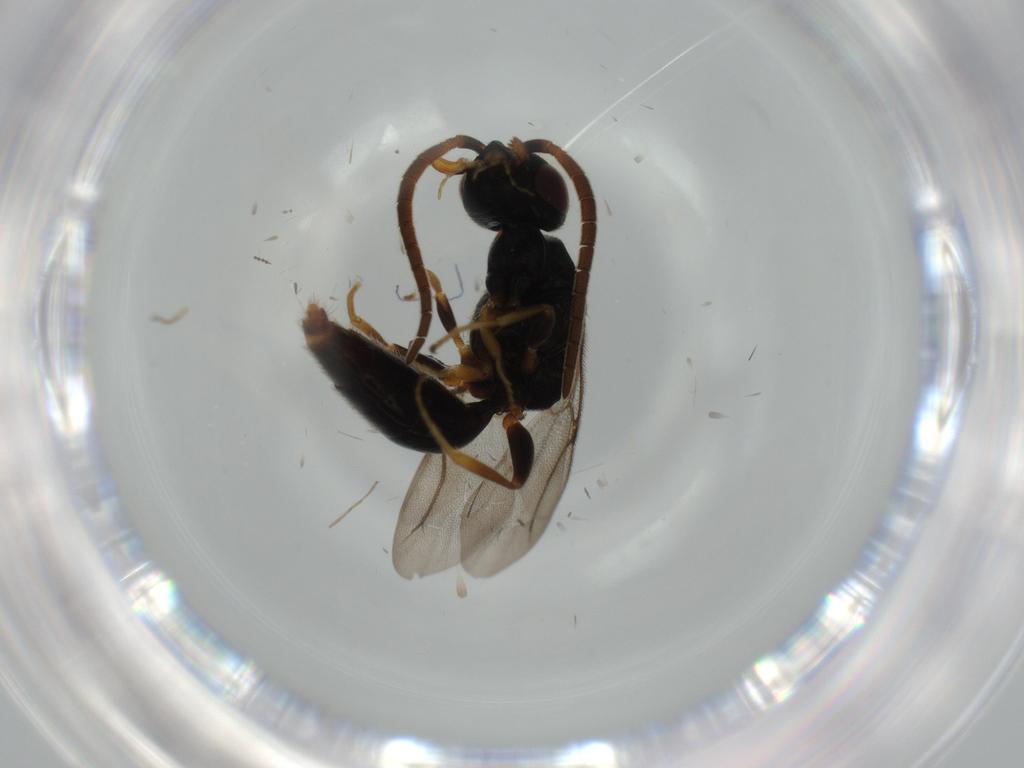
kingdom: Animalia
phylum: Arthropoda
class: Insecta
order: Hymenoptera
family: Bethylidae
